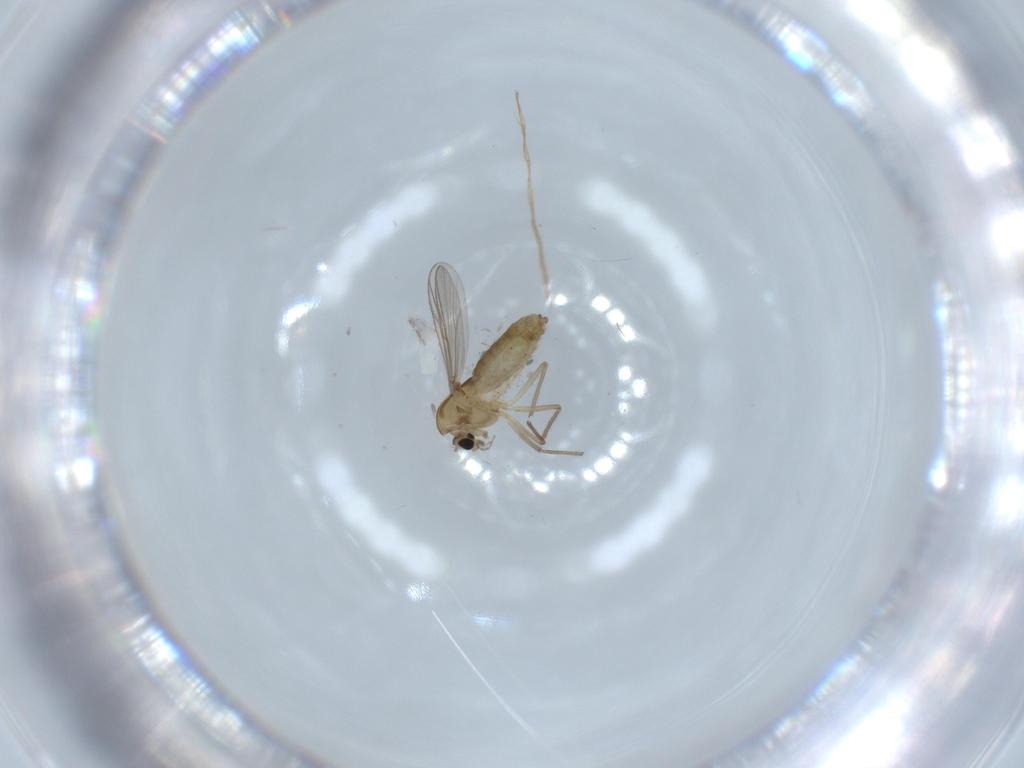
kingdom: Animalia
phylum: Arthropoda
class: Insecta
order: Diptera
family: Chironomidae
